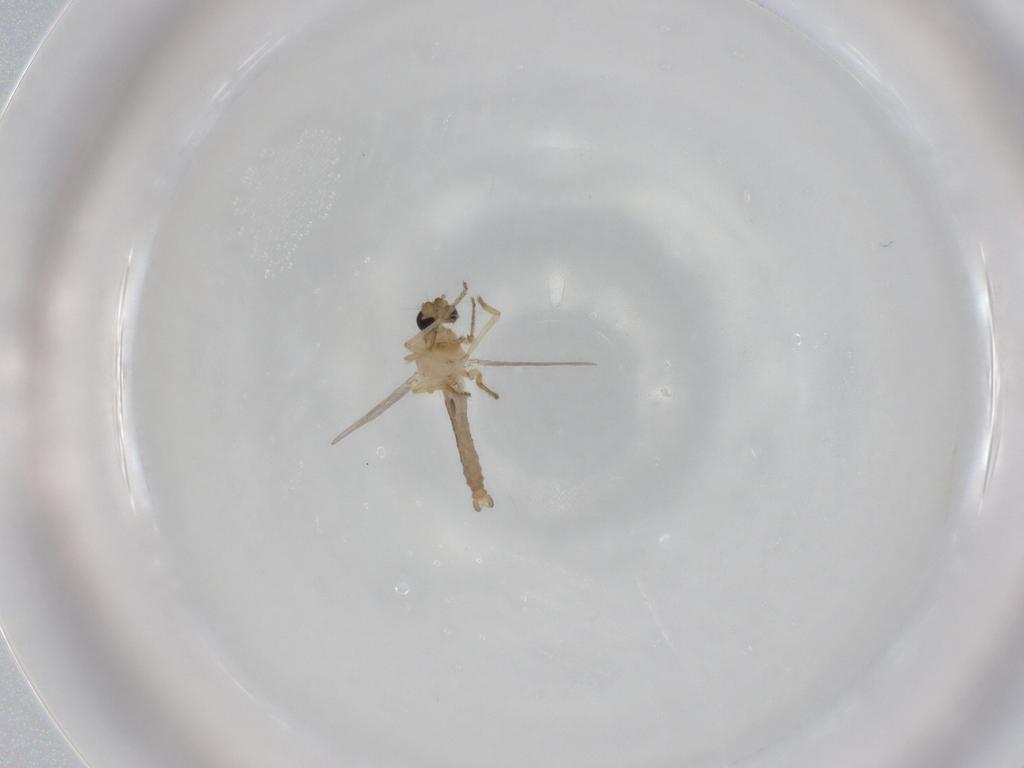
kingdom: Animalia
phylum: Arthropoda
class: Insecta
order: Diptera
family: Ceratopogonidae
